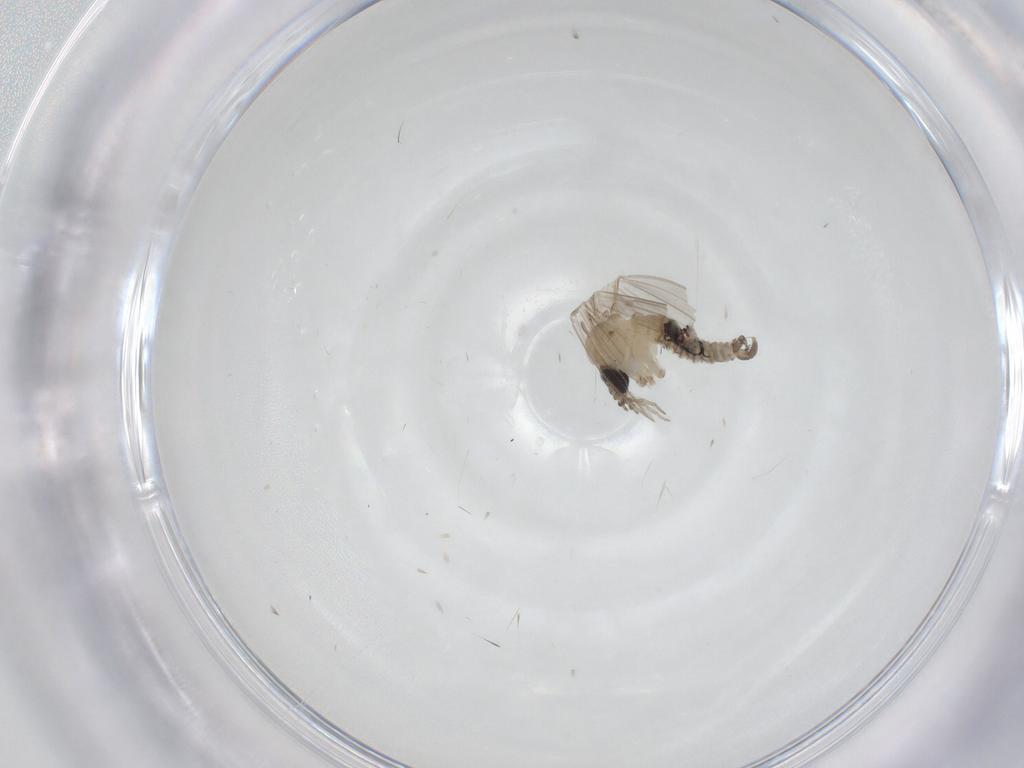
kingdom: Animalia
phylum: Arthropoda
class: Insecta
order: Diptera
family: Psychodidae
